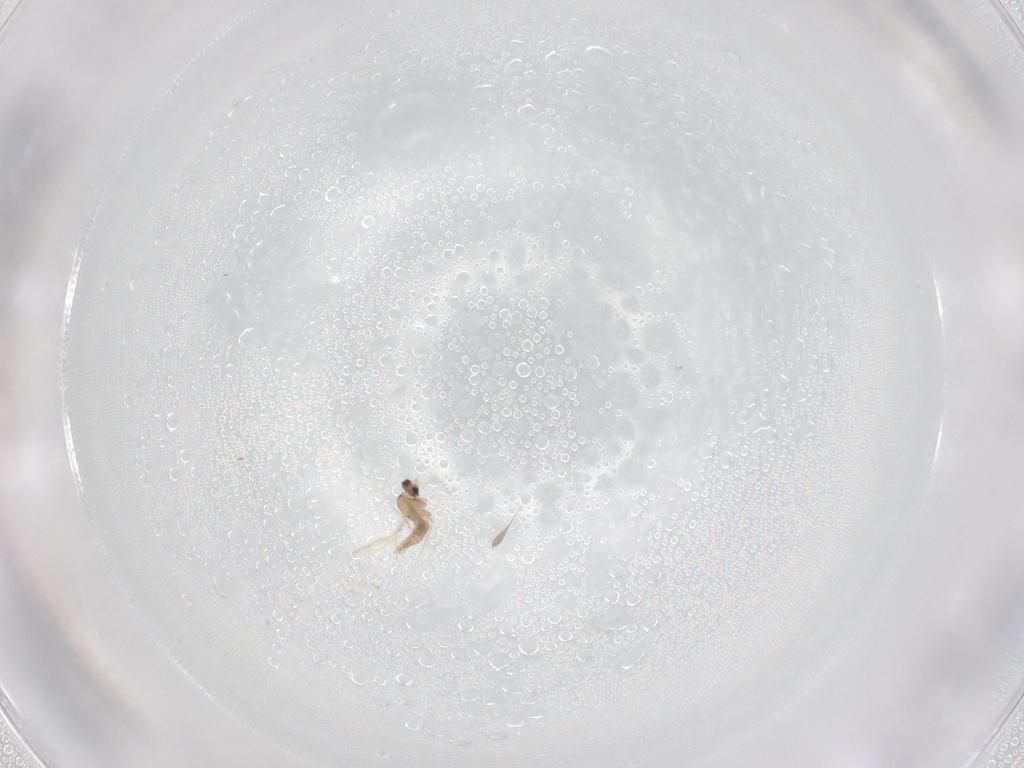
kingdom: Animalia
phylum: Arthropoda
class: Insecta
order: Diptera
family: Cecidomyiidae
